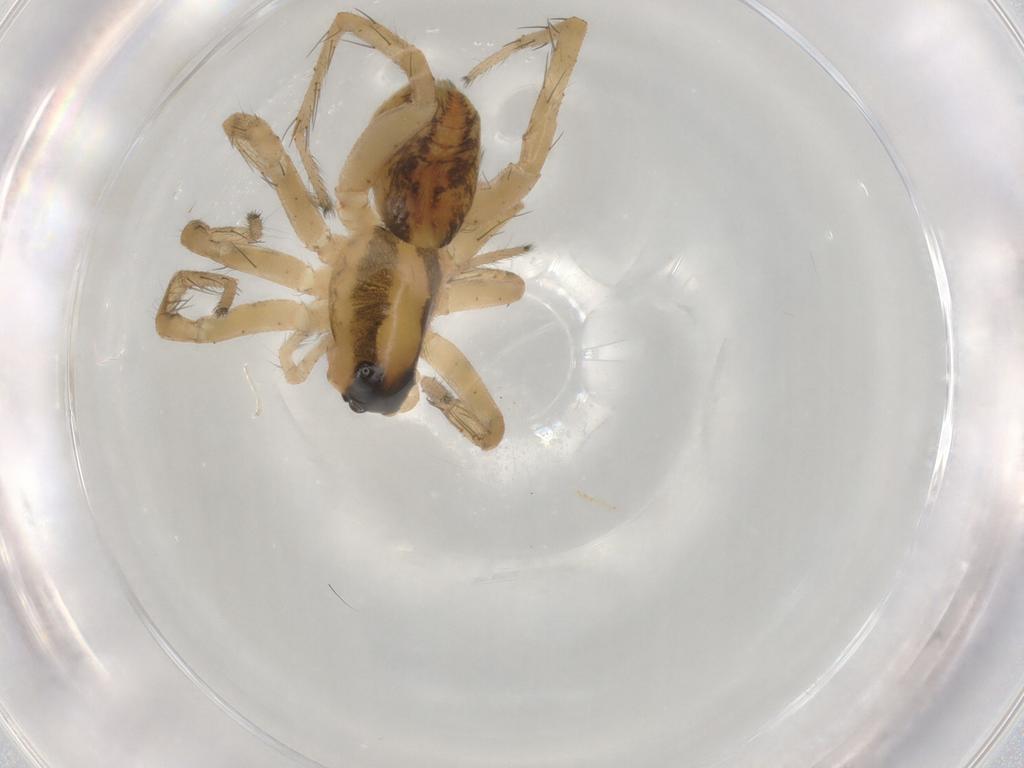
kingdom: Animalia
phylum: Arthropoda
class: Arachnida
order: Araneae
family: Lycosidae
